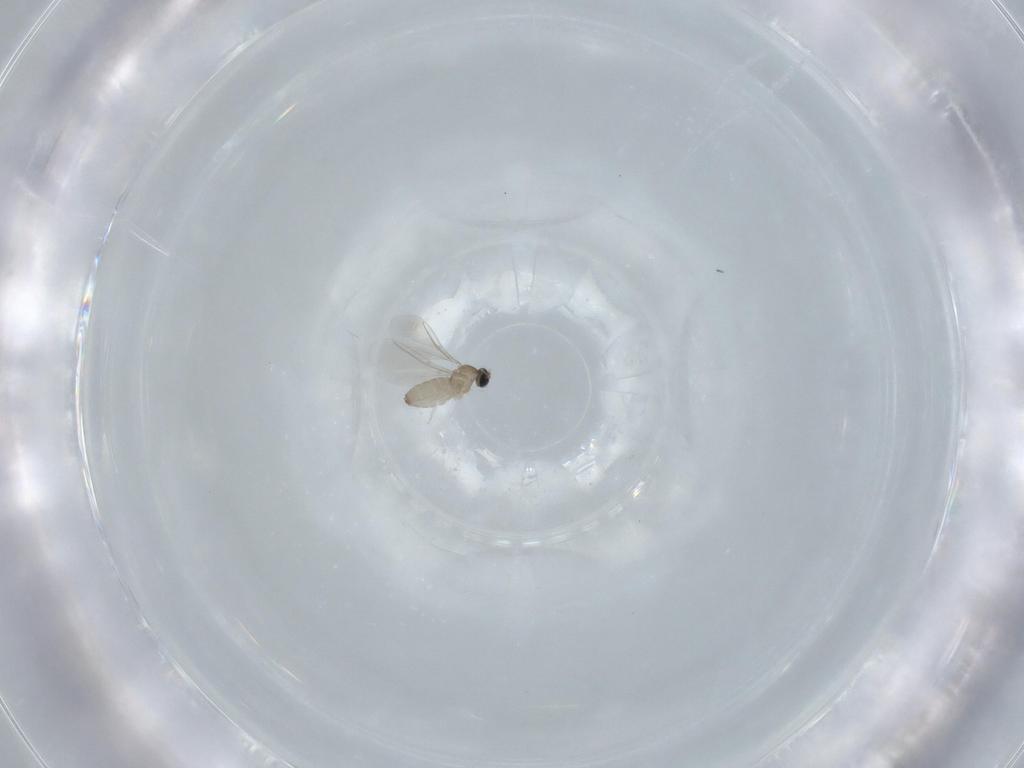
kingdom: Animalia
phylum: Arthropoda
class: Insecta
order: Diptera
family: Cecidomyiidae
